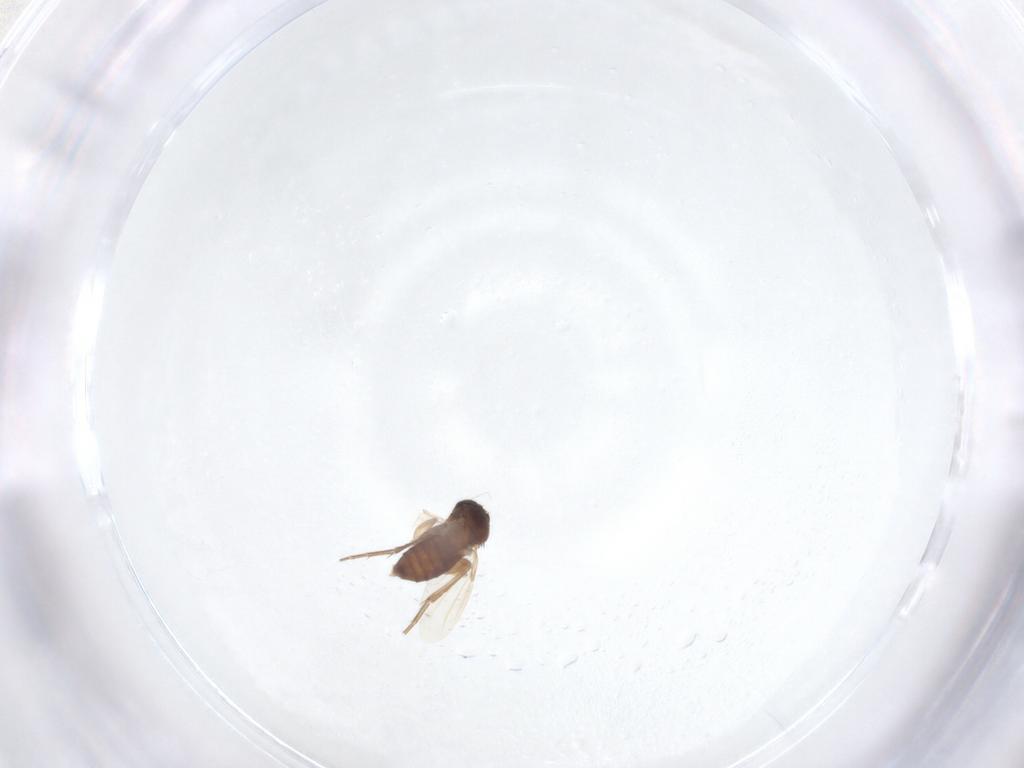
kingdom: Animalia
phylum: Arthropoda
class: Insecta
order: Diptera
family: Phoridae
